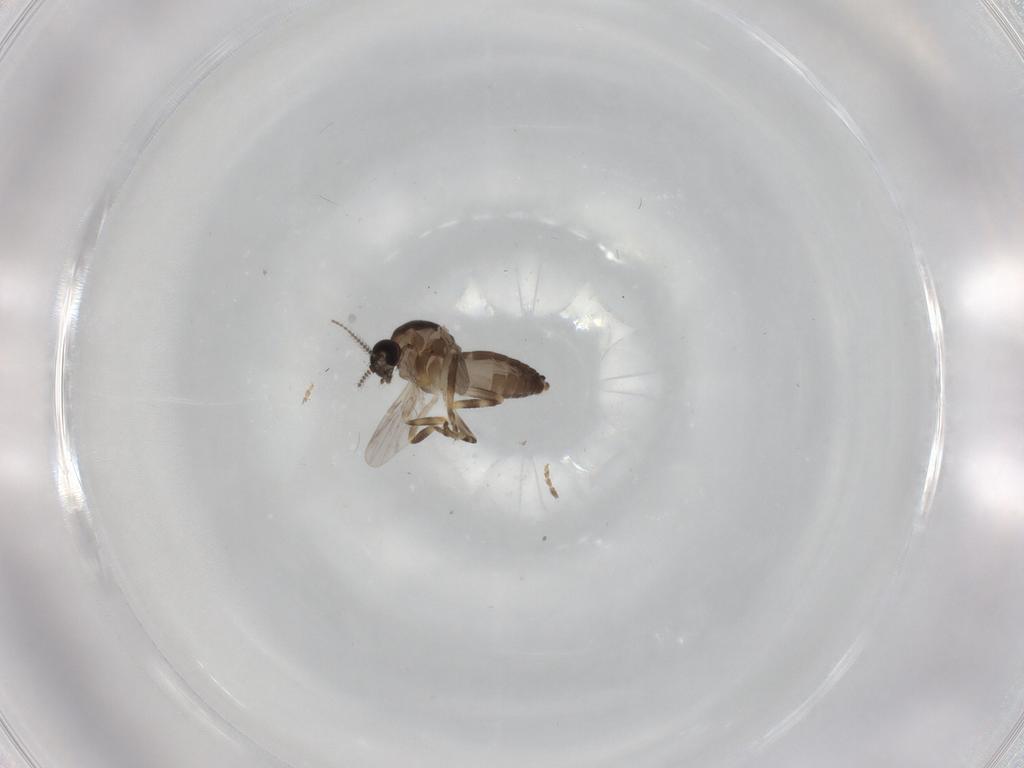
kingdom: Animalia
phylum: Arthropoda
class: Insecta
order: Diptera
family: Ceratopogonidae
